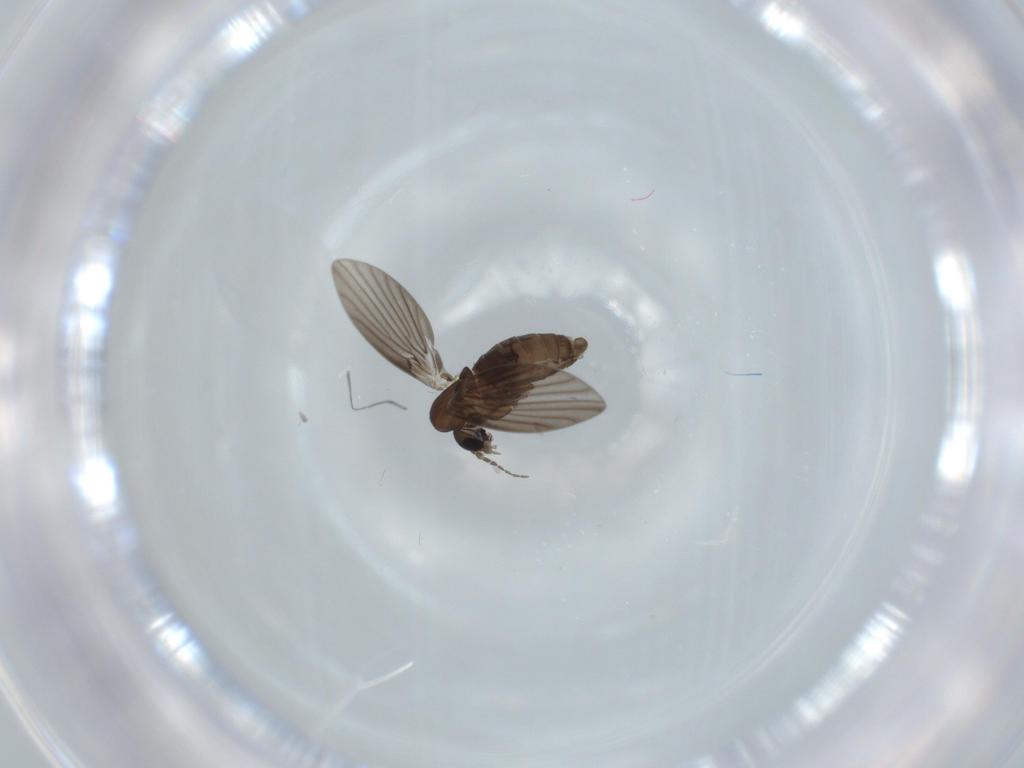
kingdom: Animalia
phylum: Arthropoda
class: Insecta
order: Diptera
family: Psychodidae
